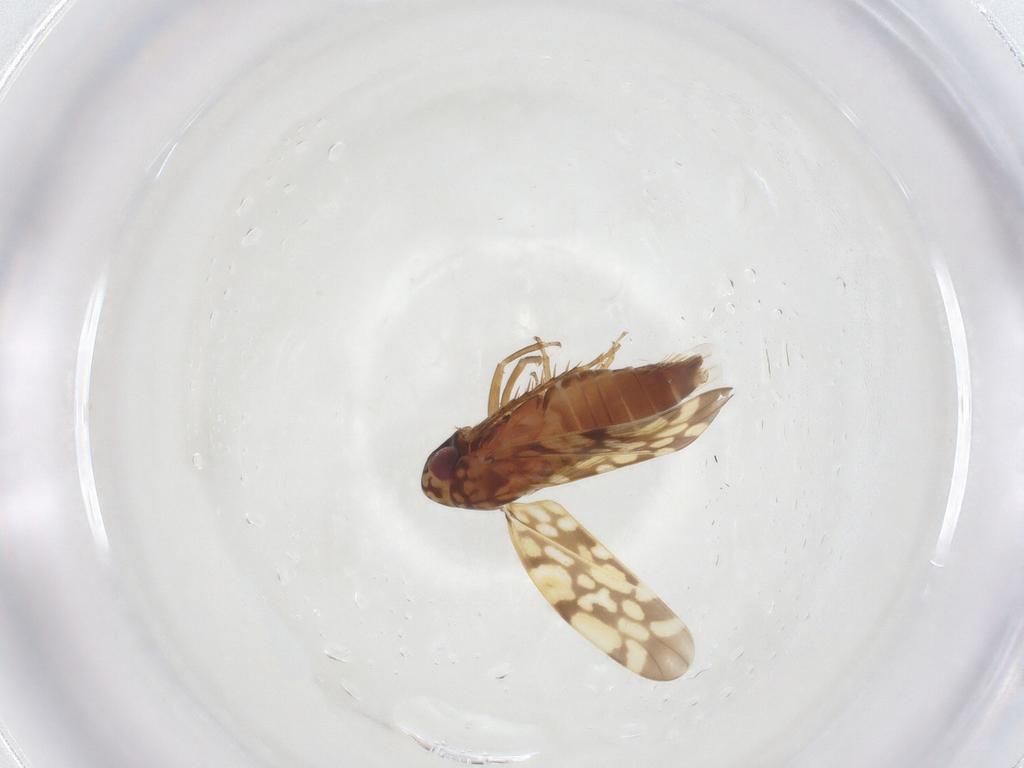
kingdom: Animalia
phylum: Arthropoda
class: Insecta
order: Hemiptera
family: Cicadellidae
